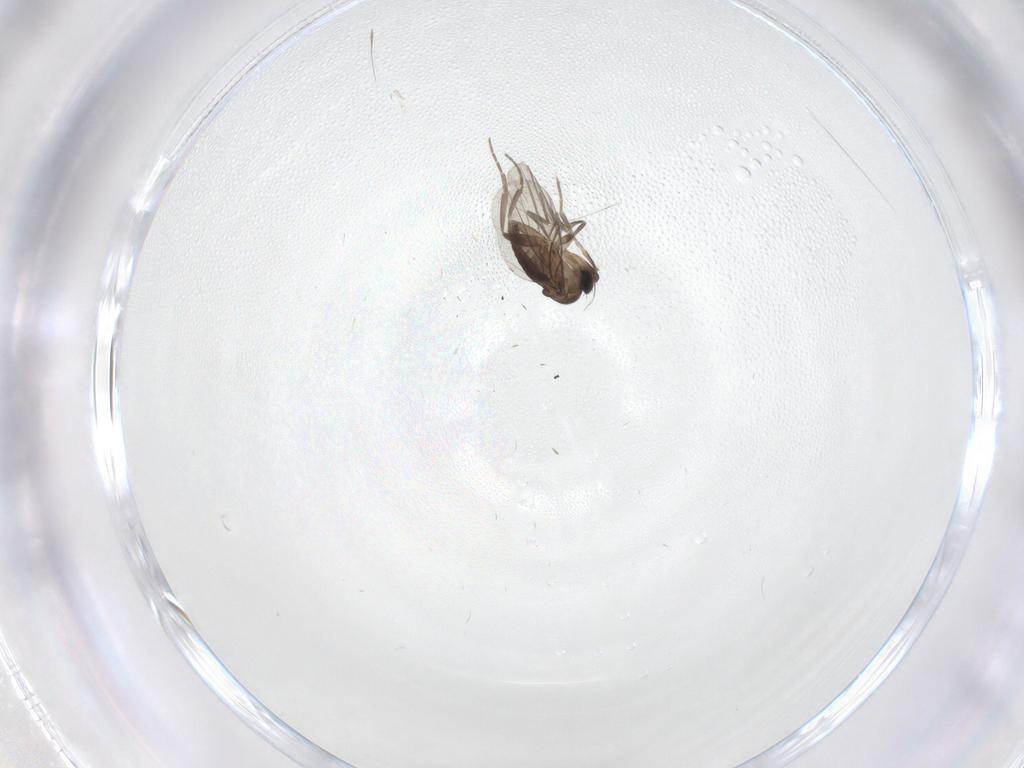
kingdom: Animalia
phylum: Arthropoda
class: Insecta
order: Diptera
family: Phoridae
